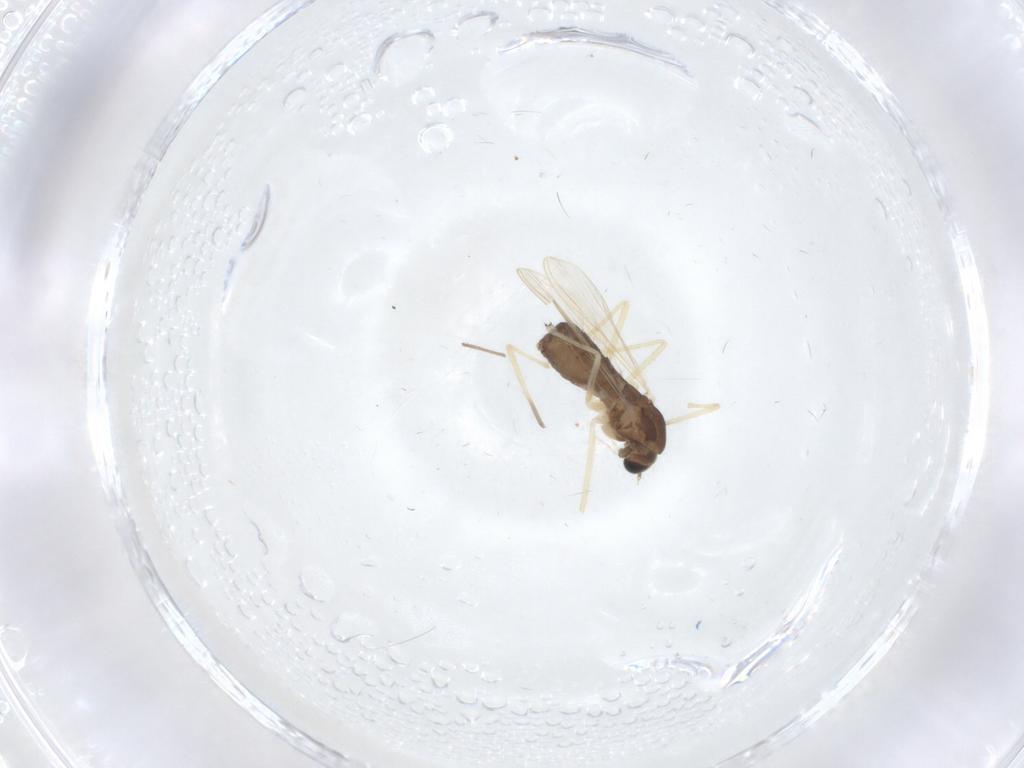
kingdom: Animalia
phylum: Arthropoda
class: Insecta
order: Diptera
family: Chironomidae
